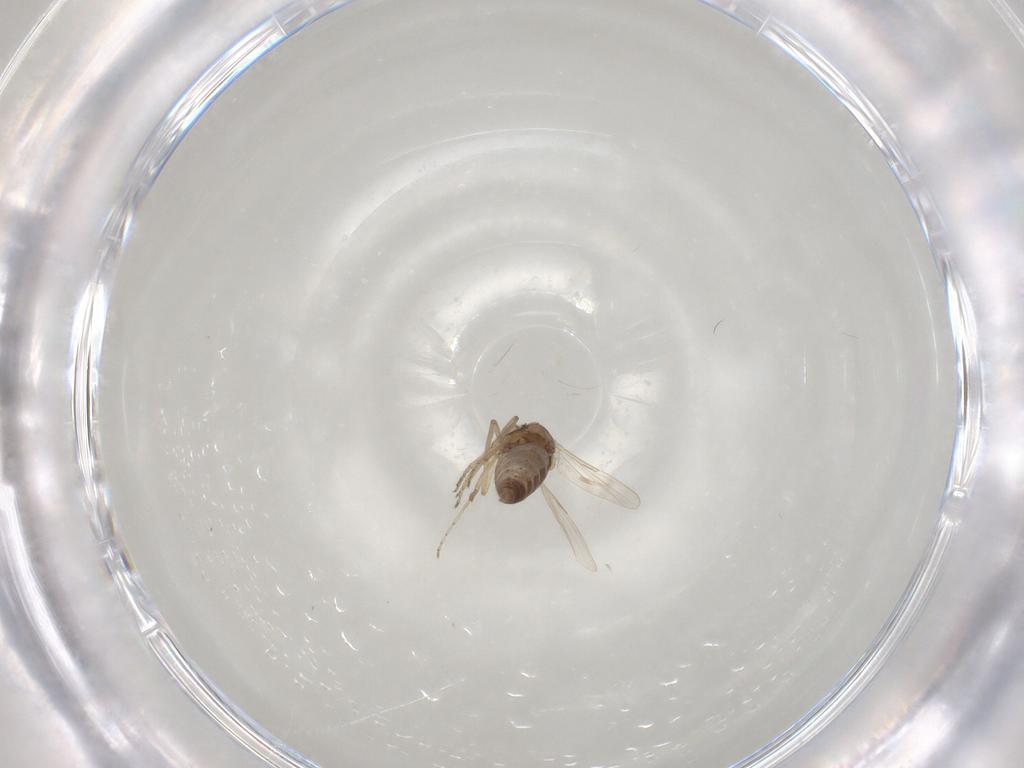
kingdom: Animalia
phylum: Arthropoda
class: Insecta
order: Diptera
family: Ceratopogonidae
